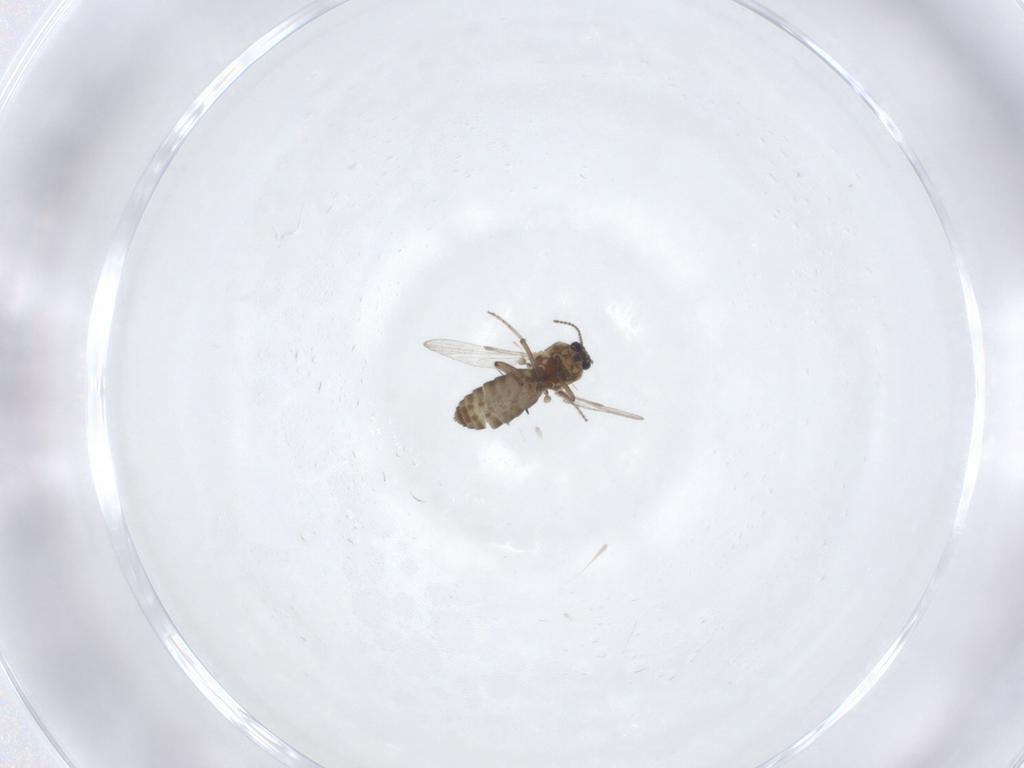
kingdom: Animalia
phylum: Arthropoda
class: Insecta
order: Diptera
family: Ceratopogonidae
